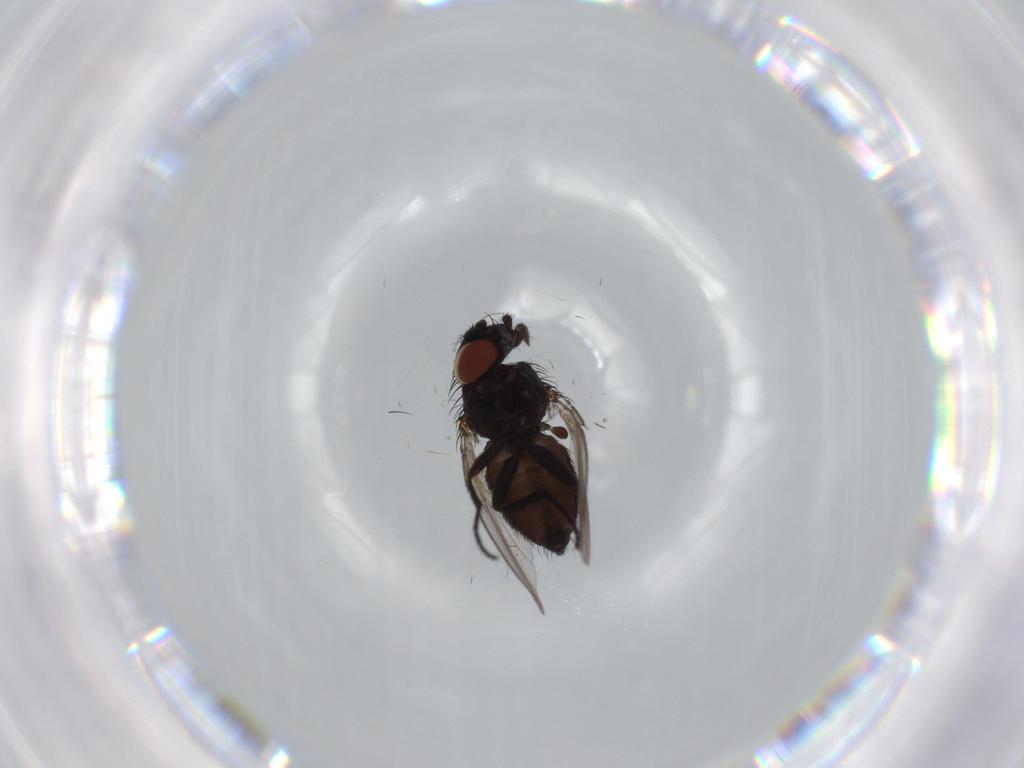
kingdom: Animalia
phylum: Arthropoda
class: Insecta
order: Diptera
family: Milichiidae
